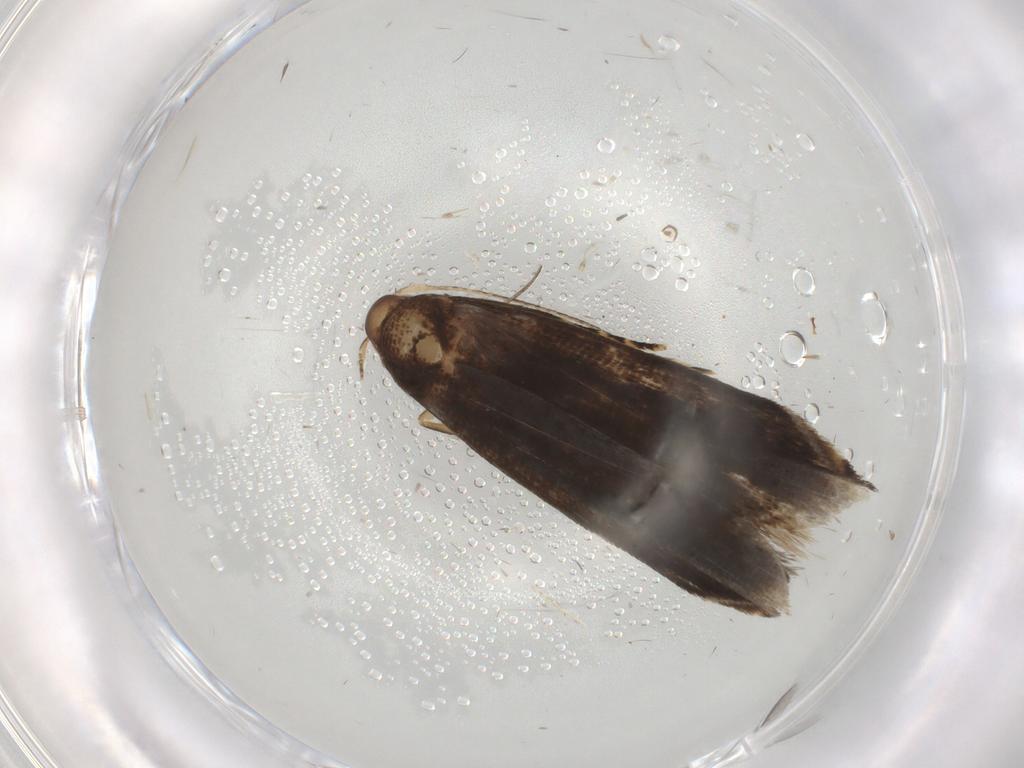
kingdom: Animalia
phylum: Arthropoda
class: Insecta
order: Lepidoptera
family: Gelechiidae
